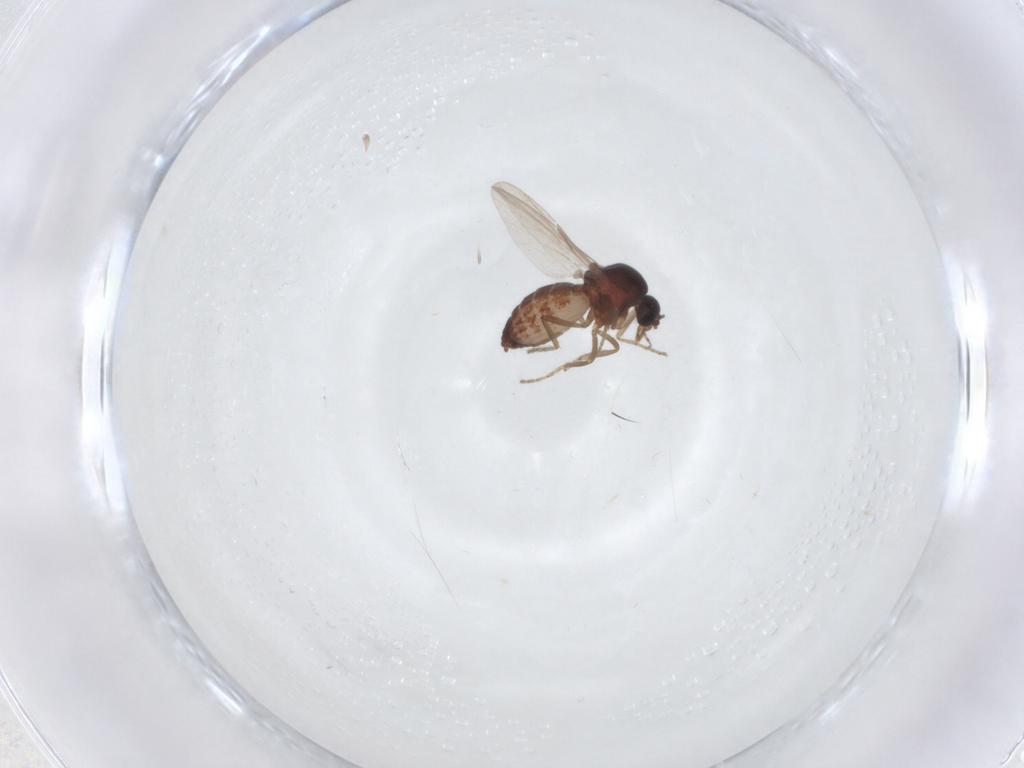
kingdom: Animalia
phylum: Arthropoda
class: Insecta
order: Diptera
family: Ceratopogonidae
